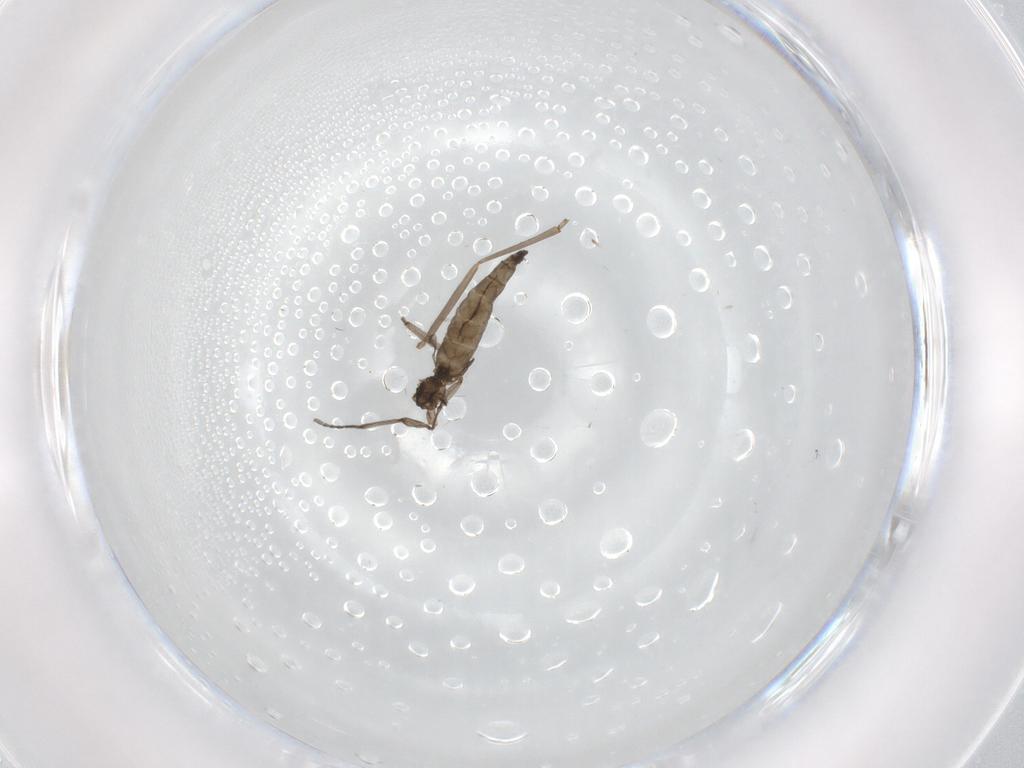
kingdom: Animalia
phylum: Arthropoda
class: Insecta
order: Diptera
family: Sciaridae
